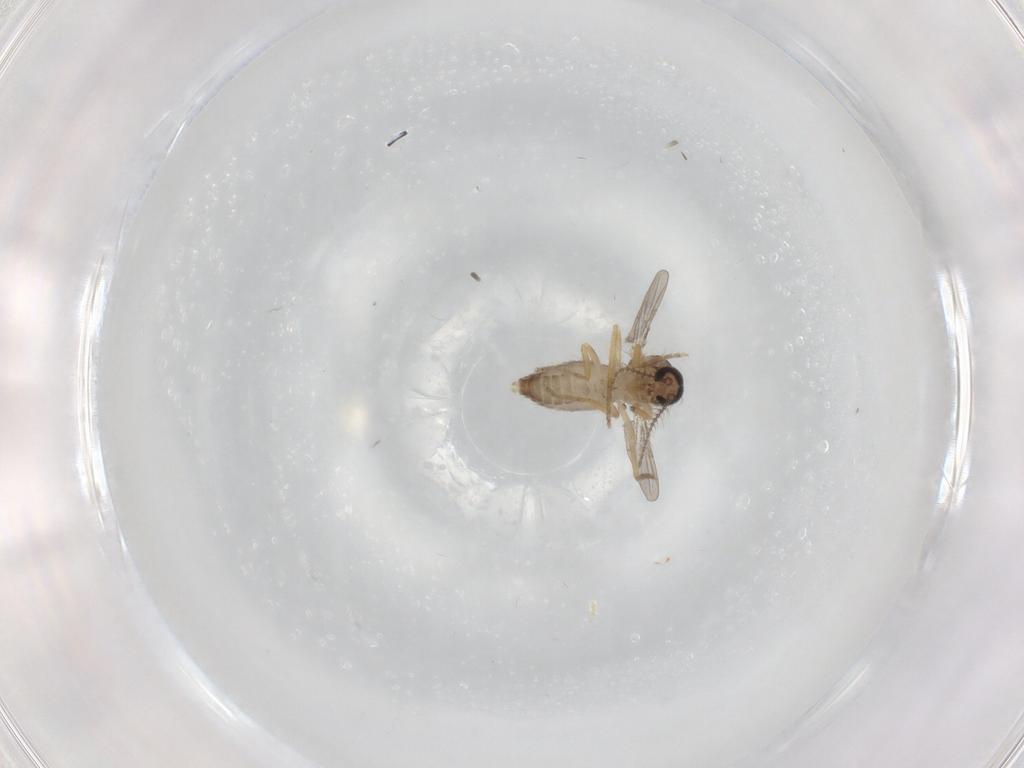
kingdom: Animalia
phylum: Arthropoda
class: Insecta
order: Diptera
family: Ceratopogonidae
